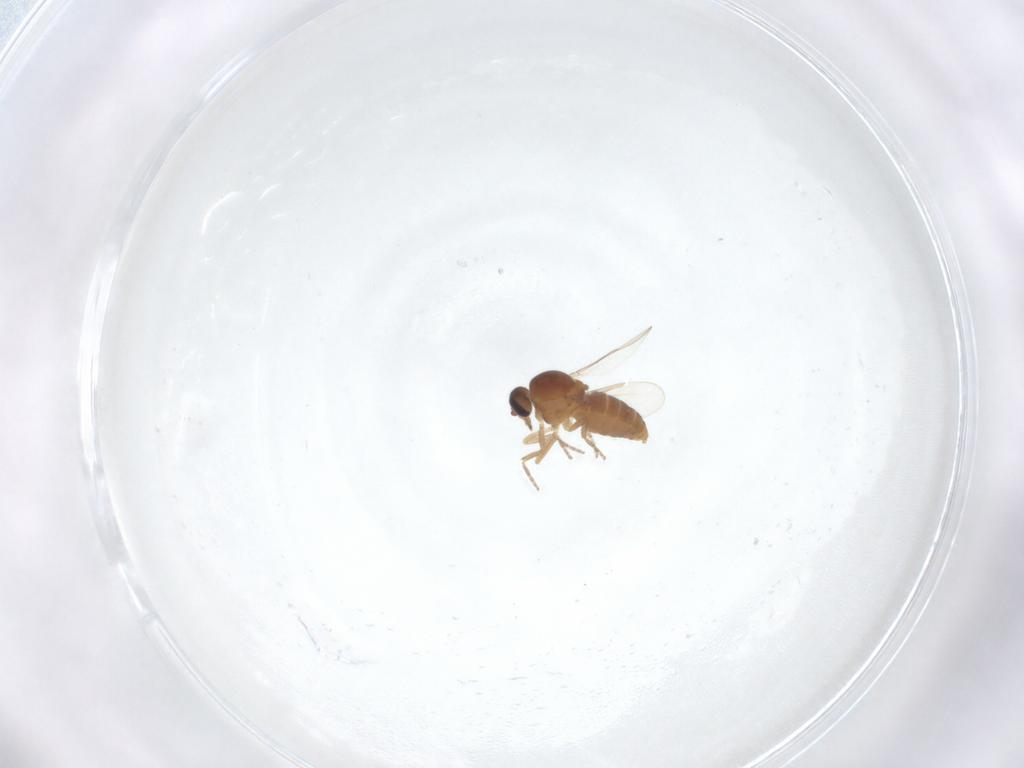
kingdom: Animalia
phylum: Arthropoda
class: Insecta
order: Diptera
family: Ceratopogonidae
